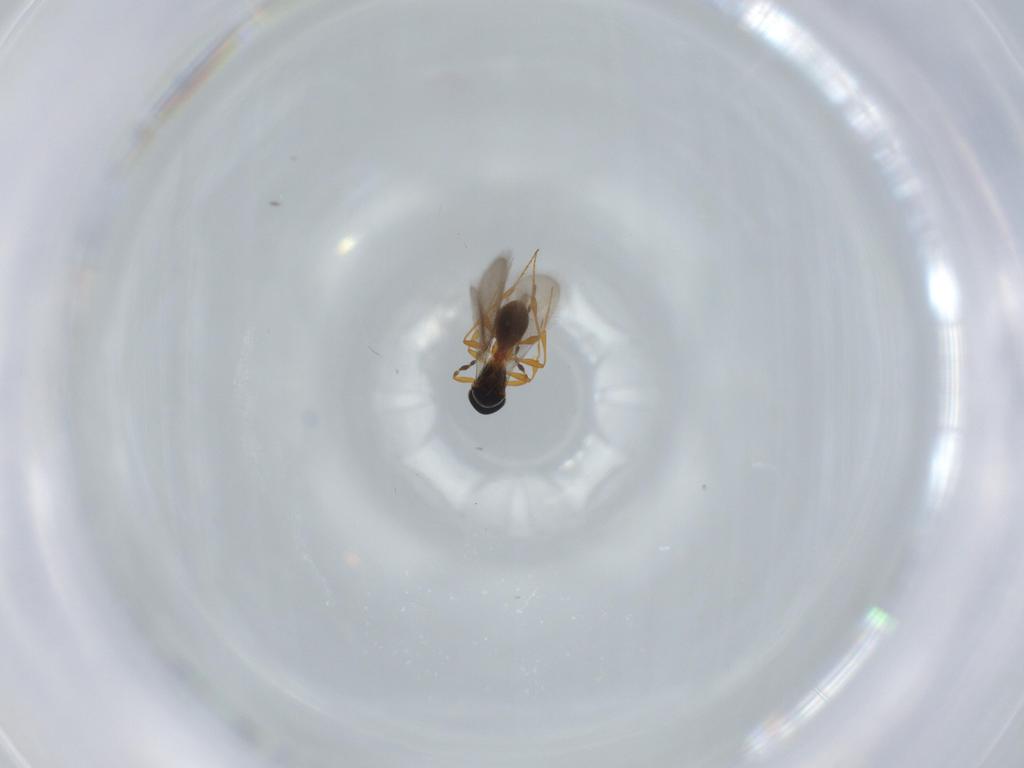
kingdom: Animalia
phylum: Arthropoda
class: Insecta
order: Hymenoptera
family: Platygastridae
